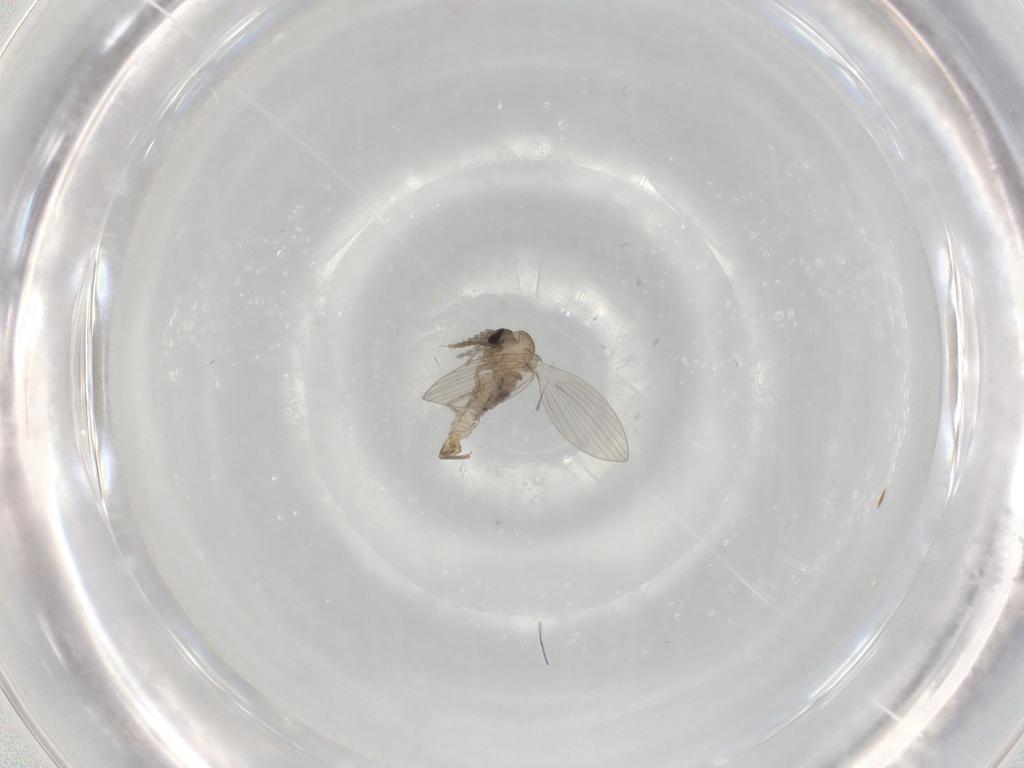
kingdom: Animalia
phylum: Arthropoda
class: Insecta
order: Diptera
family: Psychodidae
